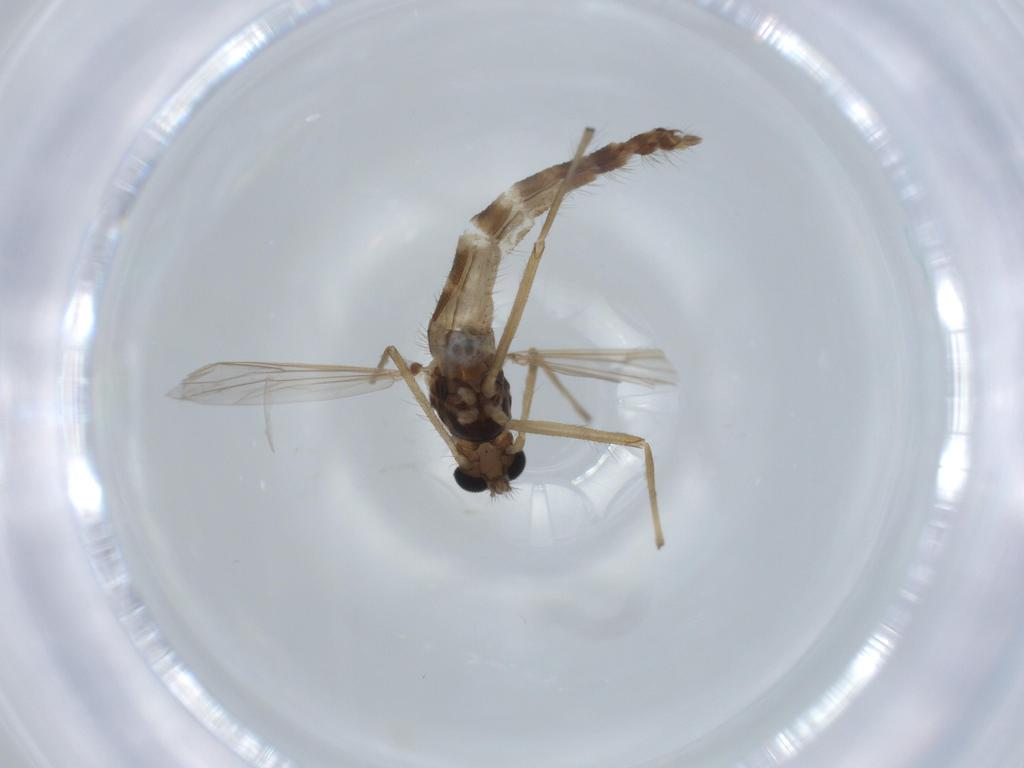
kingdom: Animalia
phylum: Arthropoda
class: Insecta
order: Diptera
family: Chironomidae
